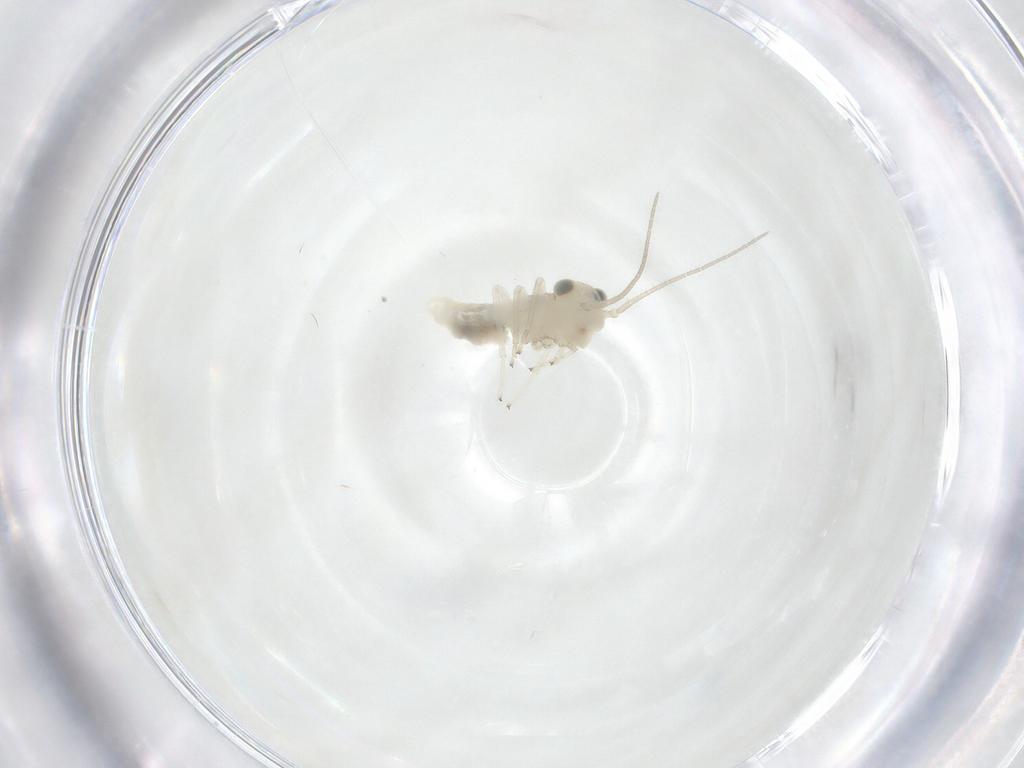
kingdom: Animalia
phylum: Arthropoda
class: Insecta
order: Psocodea
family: Caeciliusidae
